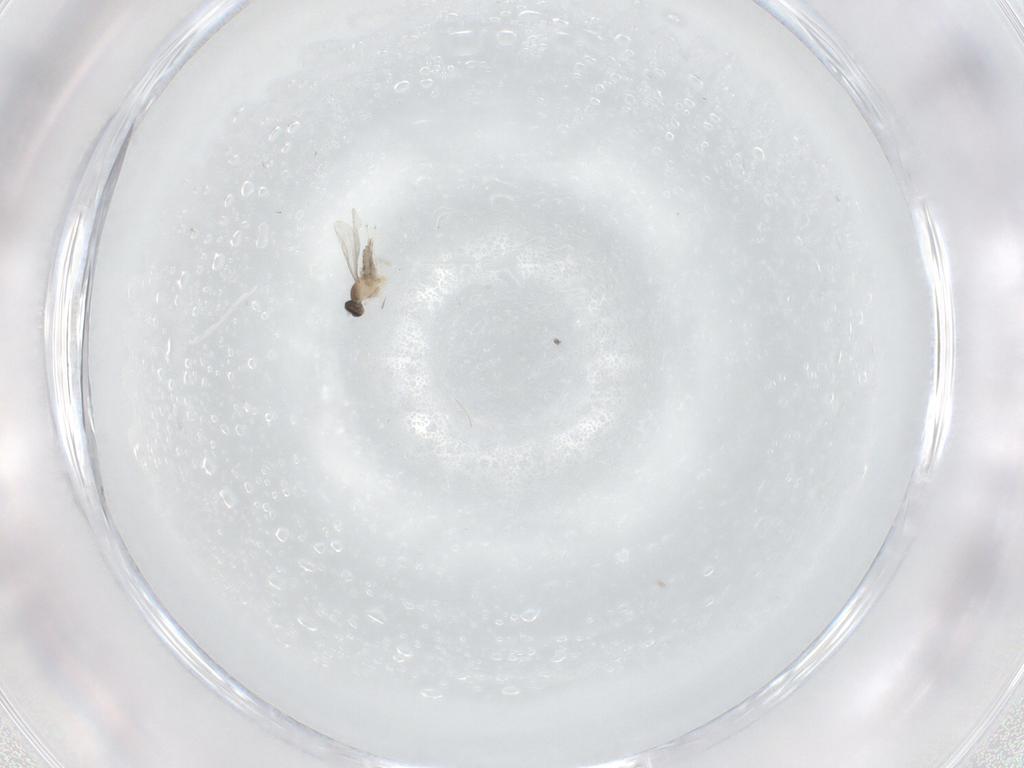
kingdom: Animalia
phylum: Arthropoda
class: Insecta
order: Diptera
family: Cecidomyiidae
